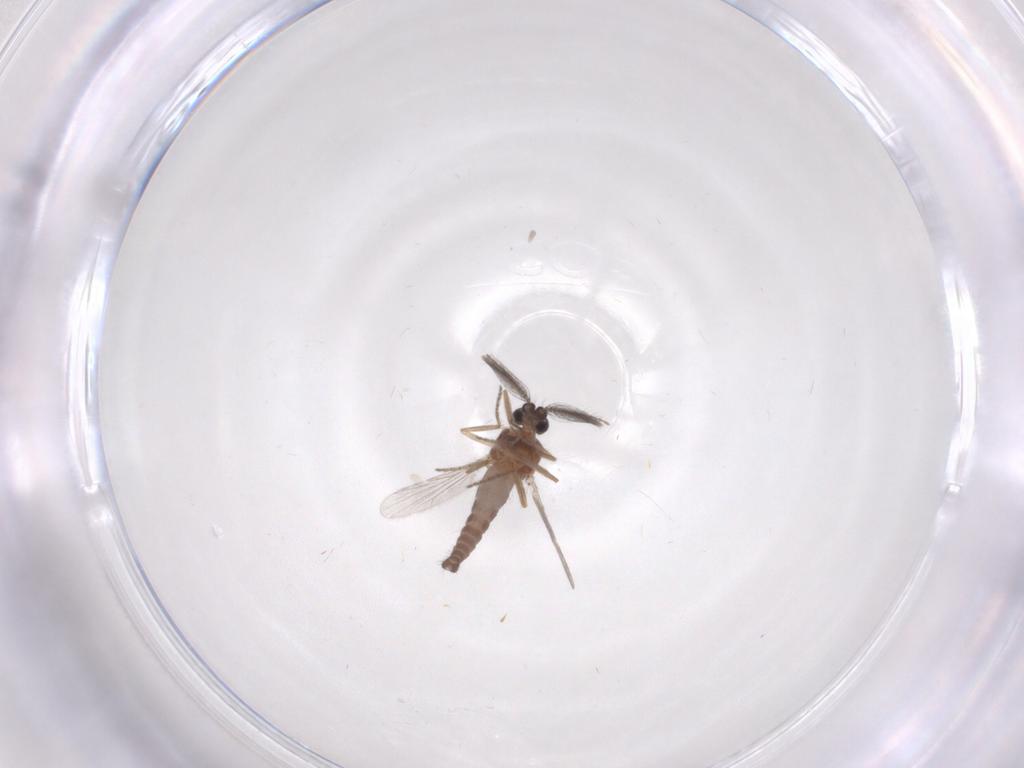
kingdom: Animalia
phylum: Arthropoda
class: Insecta
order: Diptera
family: Ceratopogonidae
